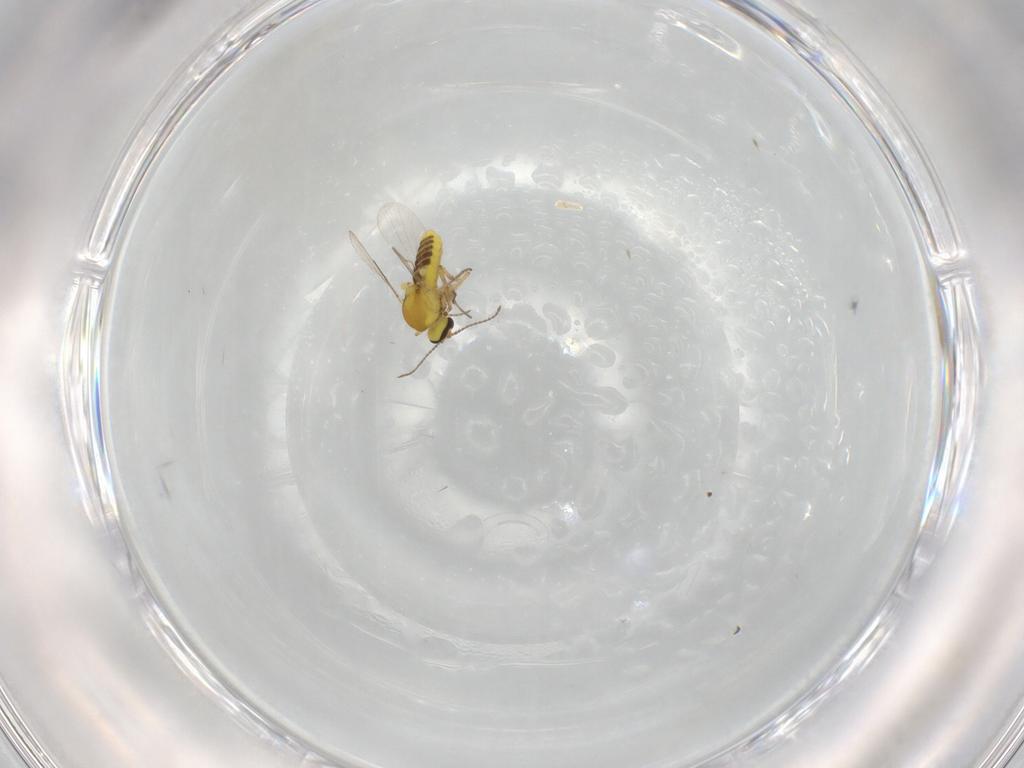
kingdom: Animalia
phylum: Arthropoda
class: Insecta
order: Diptera
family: Ceratopogonidae
